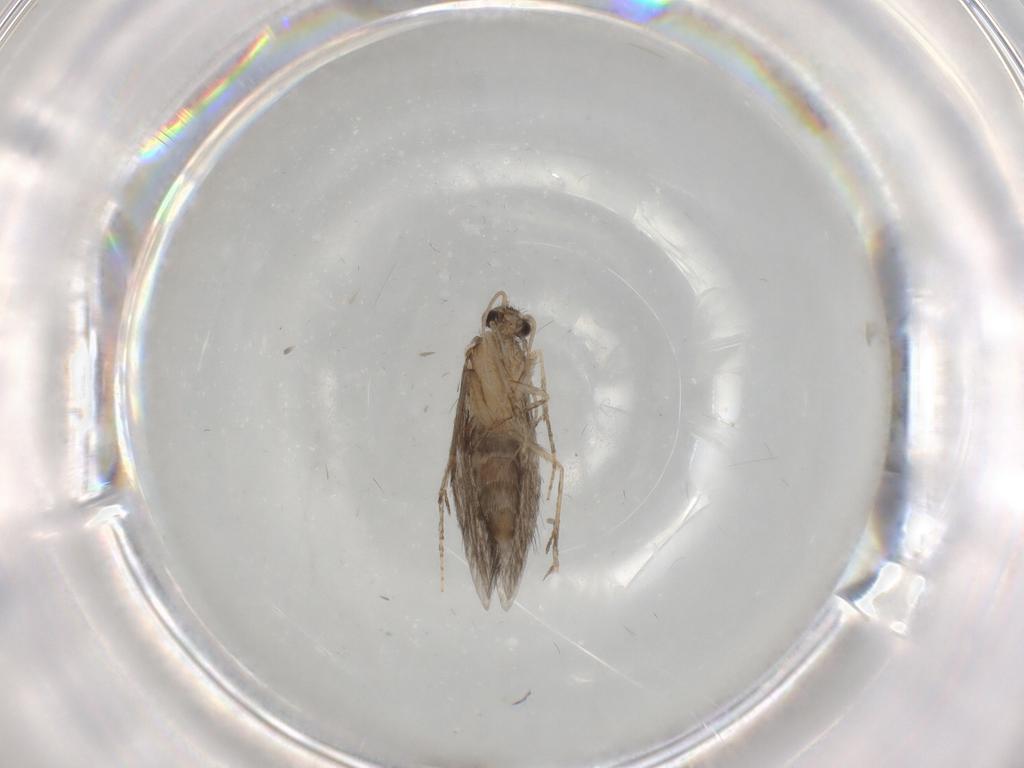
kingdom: Animalia
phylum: Arthropoda
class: Insecta
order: Trichoptera
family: Hydroptilidae
